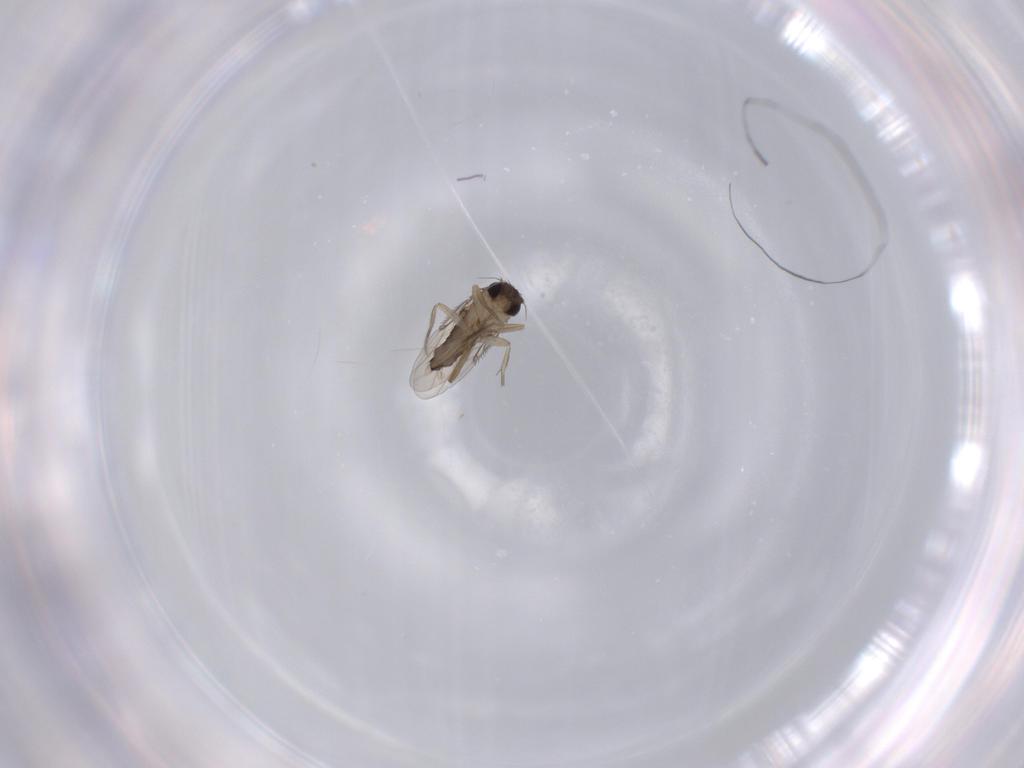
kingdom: Animalia
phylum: Arthropoda
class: Insecta
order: Diptera
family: Phoridae
